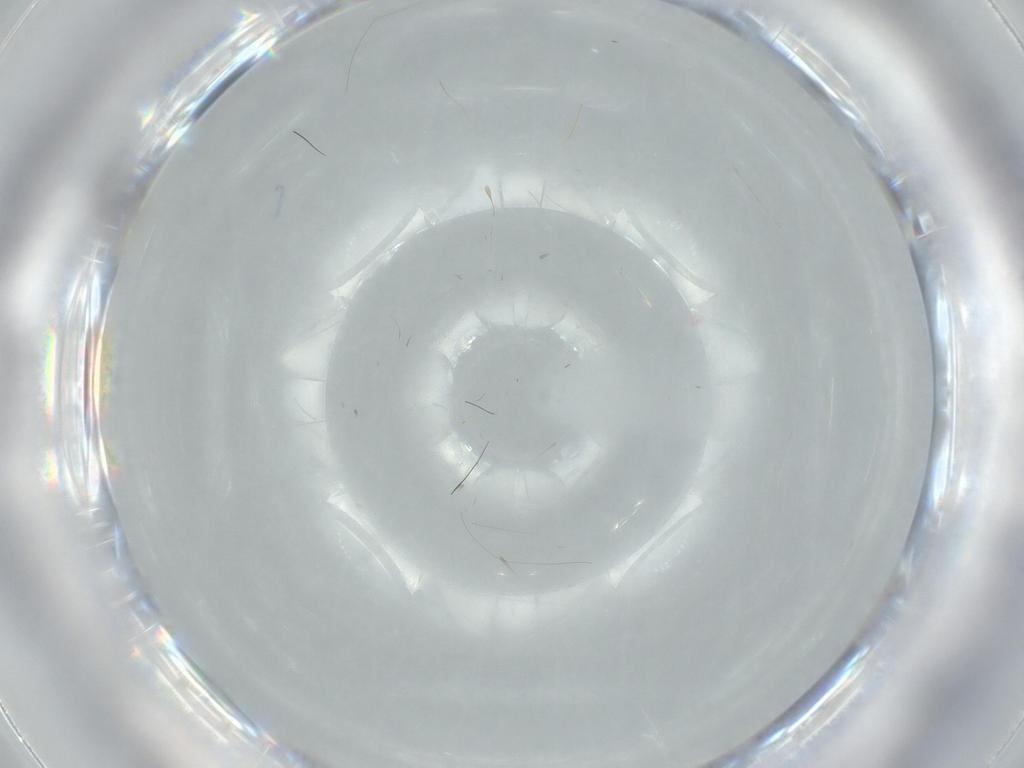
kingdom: Animalia
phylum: Arthropoda
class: Insecta
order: Hymenoptera
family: Trichogrammatidae
